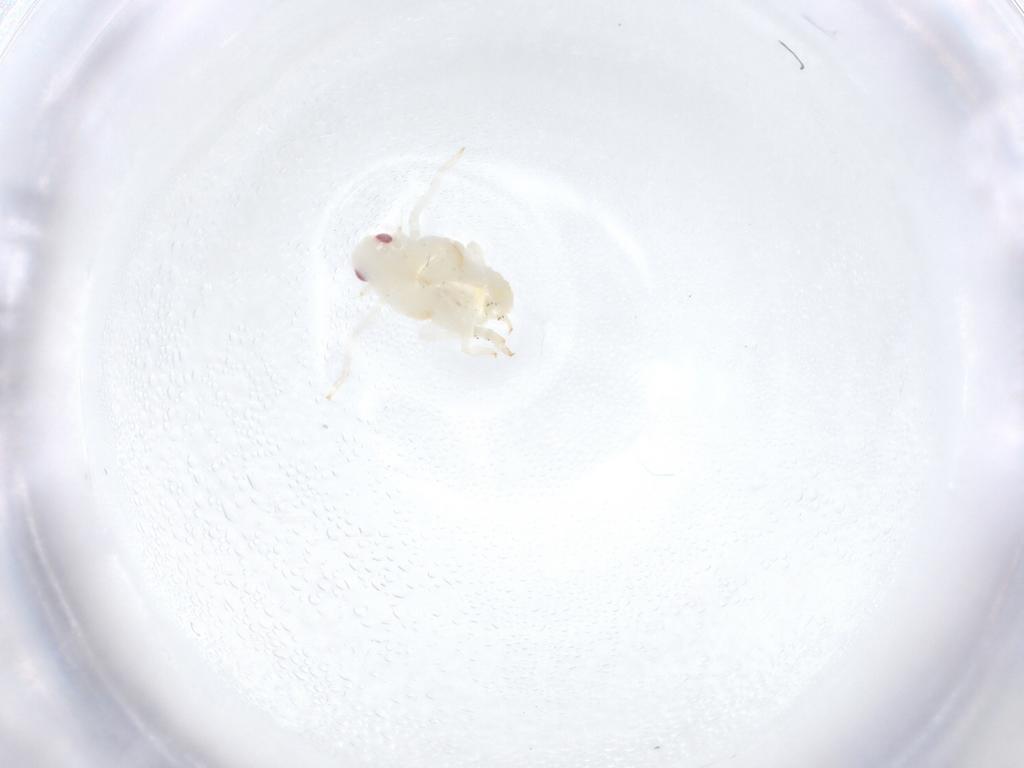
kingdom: Animalia
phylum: Arthropoda
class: Insecta
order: Hemiptera
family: Flatidae
